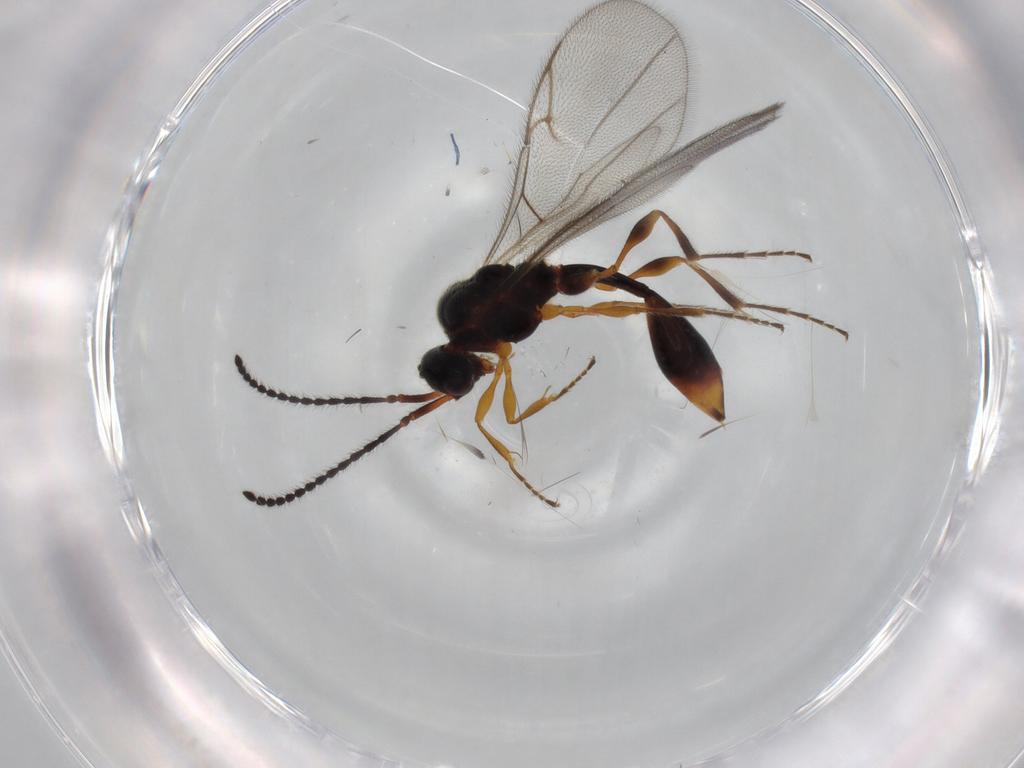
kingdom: Animalia
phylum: Arthropoda
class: Insecta
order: Hymenoptera
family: Diapriidae
